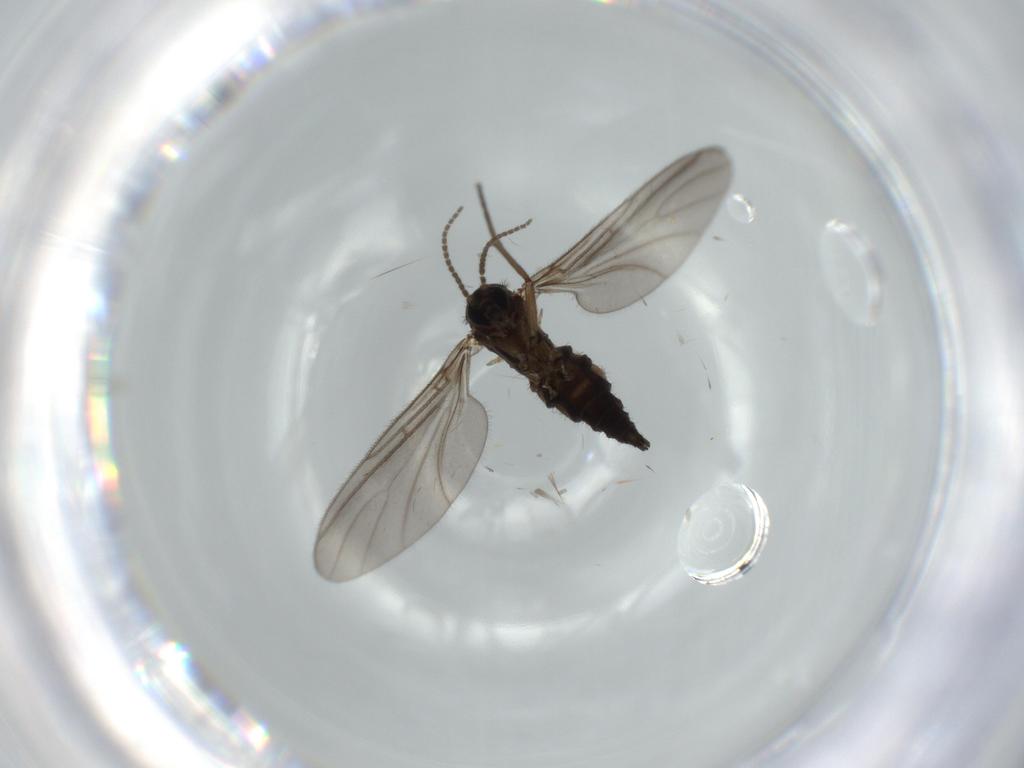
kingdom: Animalia
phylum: Arthropoda
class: Insecta
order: Diptera
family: Sciaridae
